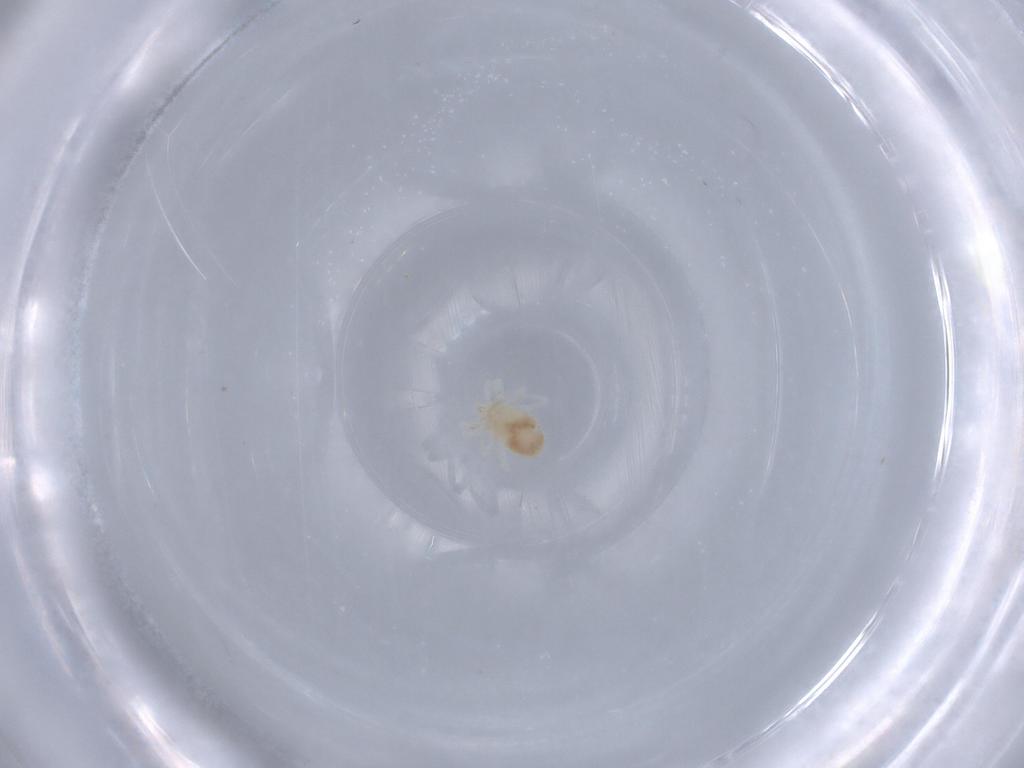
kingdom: Animalia
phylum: Arthropoda
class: Arachnida
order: Trombidiformes
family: Anystidae
